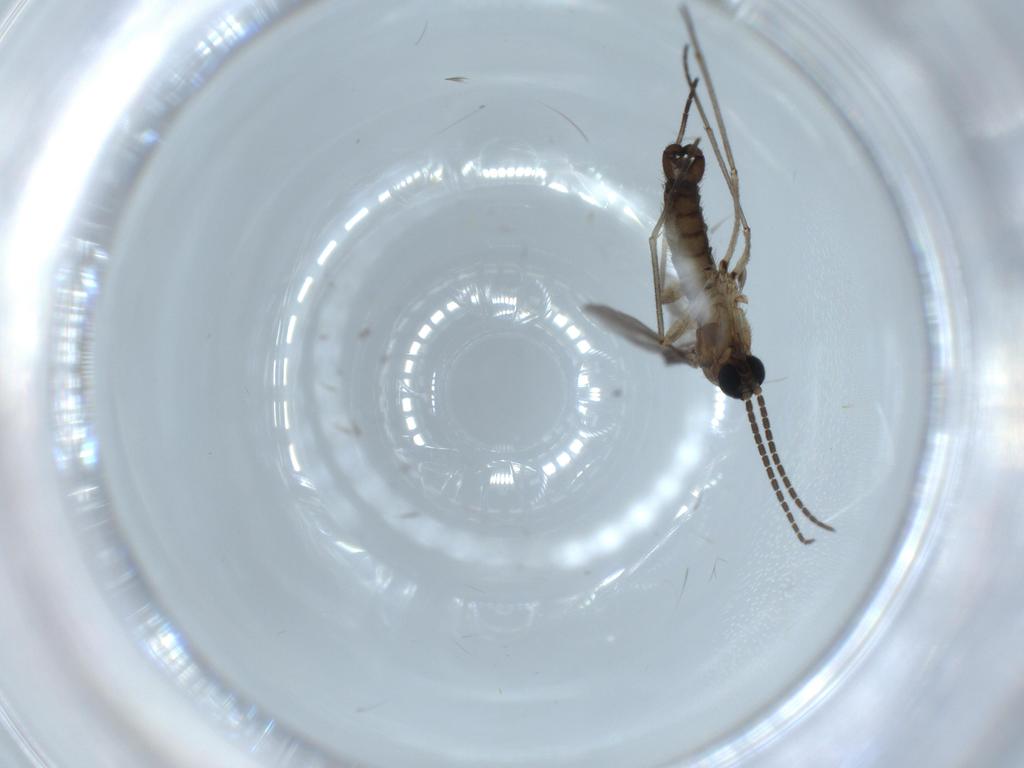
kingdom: Animalia
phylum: Arthropoda
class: Insecta
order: Diptera
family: Sciaridae
